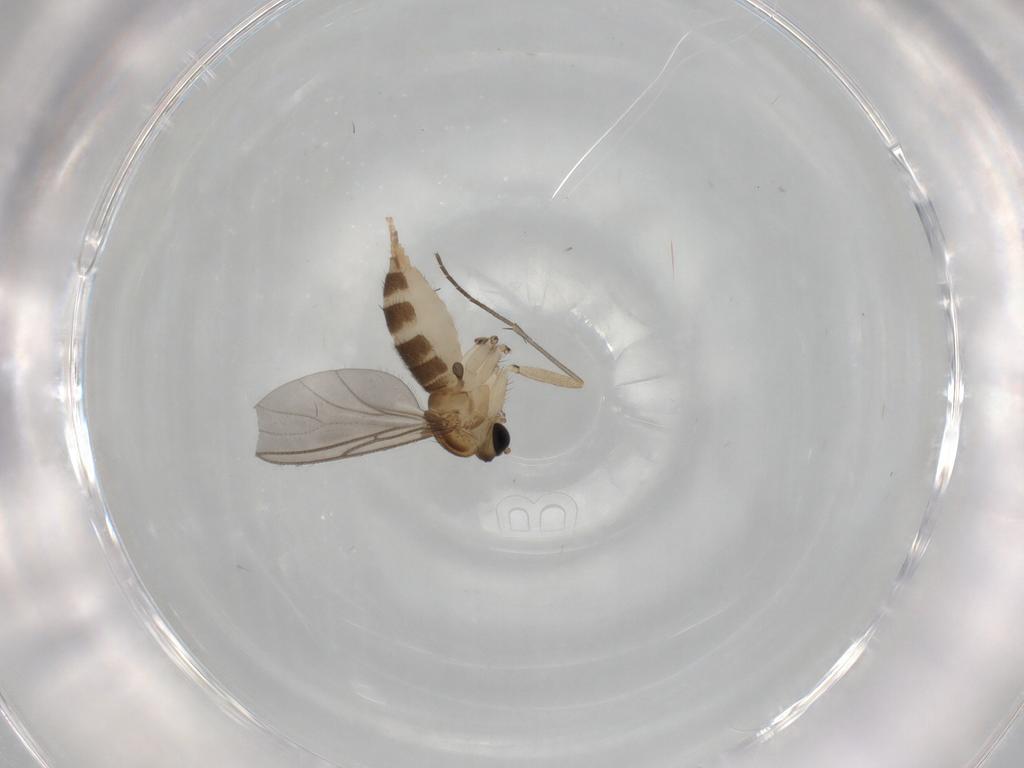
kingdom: Animalia
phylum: Arthropoda
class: Insecta
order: Diptera
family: Sciaridae
